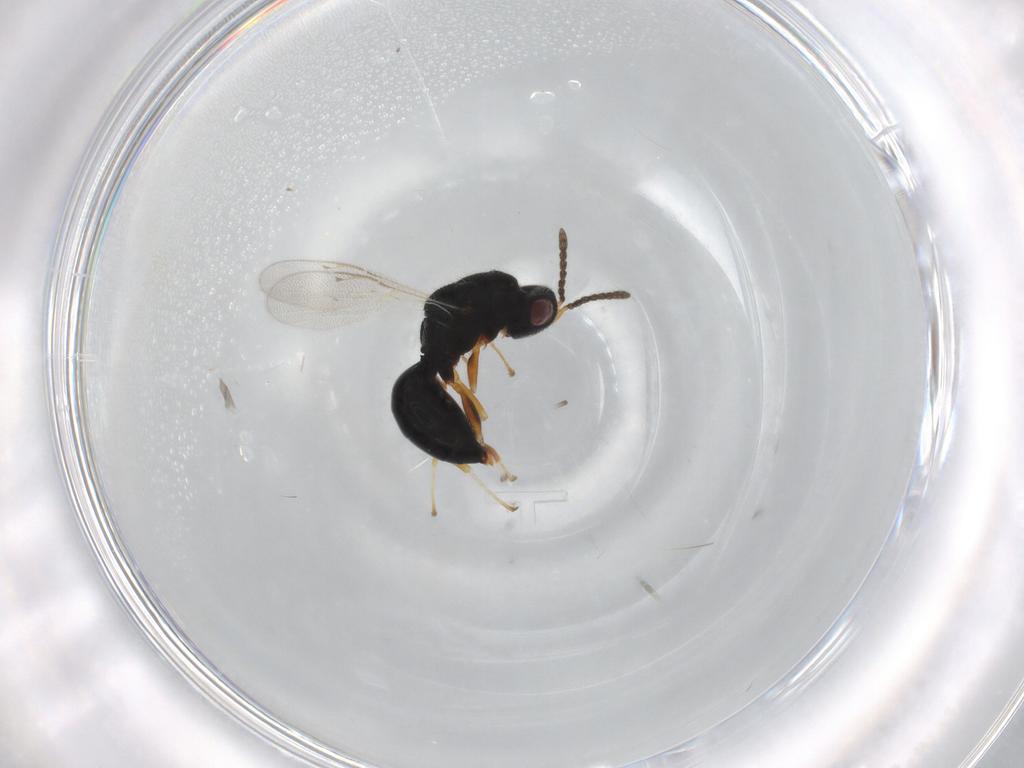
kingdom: Animalia
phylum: Arthropoda
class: Insecta
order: Hymenoptera
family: Eurytomidae
